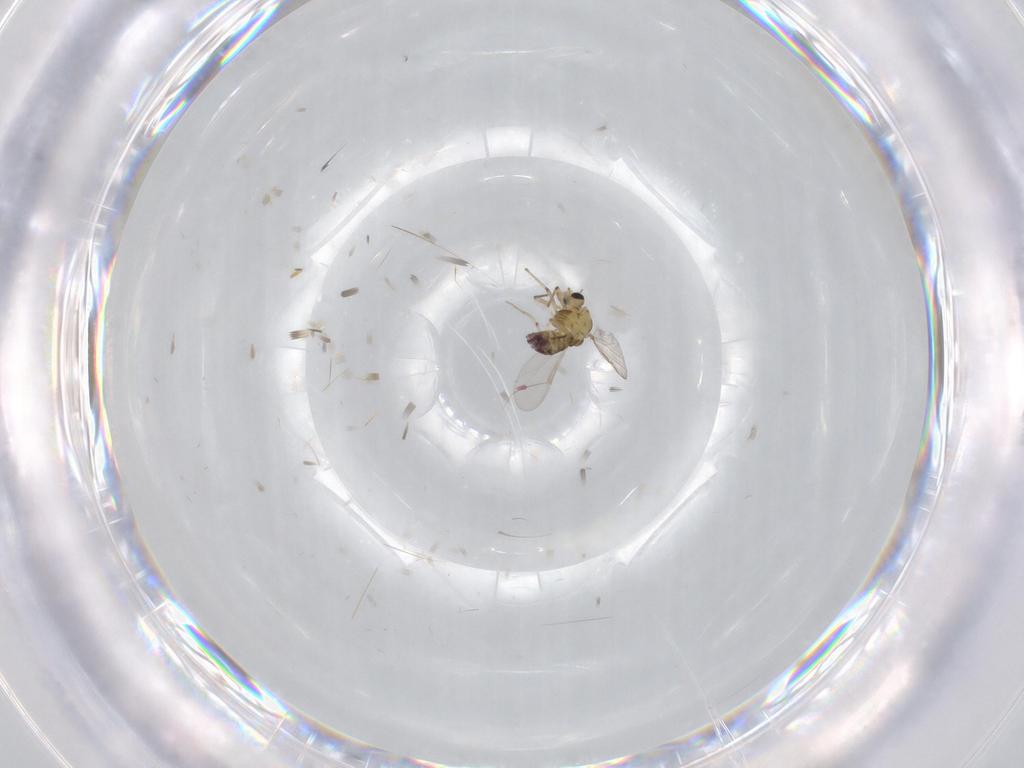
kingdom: Animalia
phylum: Arthropoda
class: Insecta
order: Diptera
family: Chironomidae
